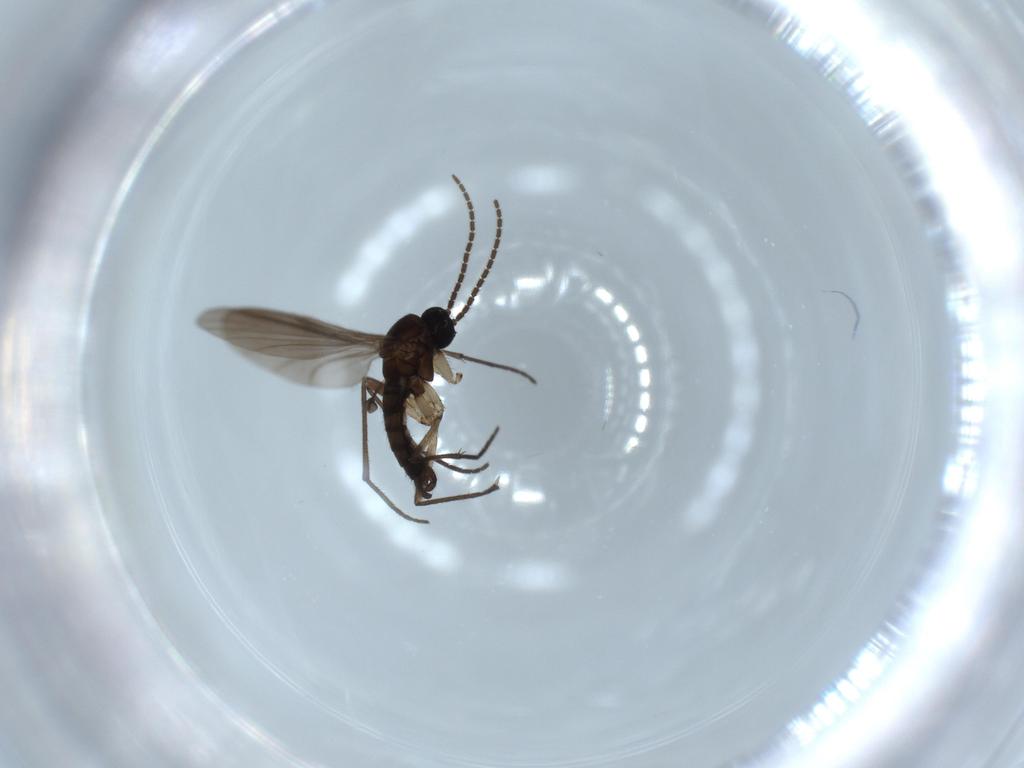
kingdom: Animalia
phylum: Arthropoda
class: Insecta
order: Diptera
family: Sciaridae
